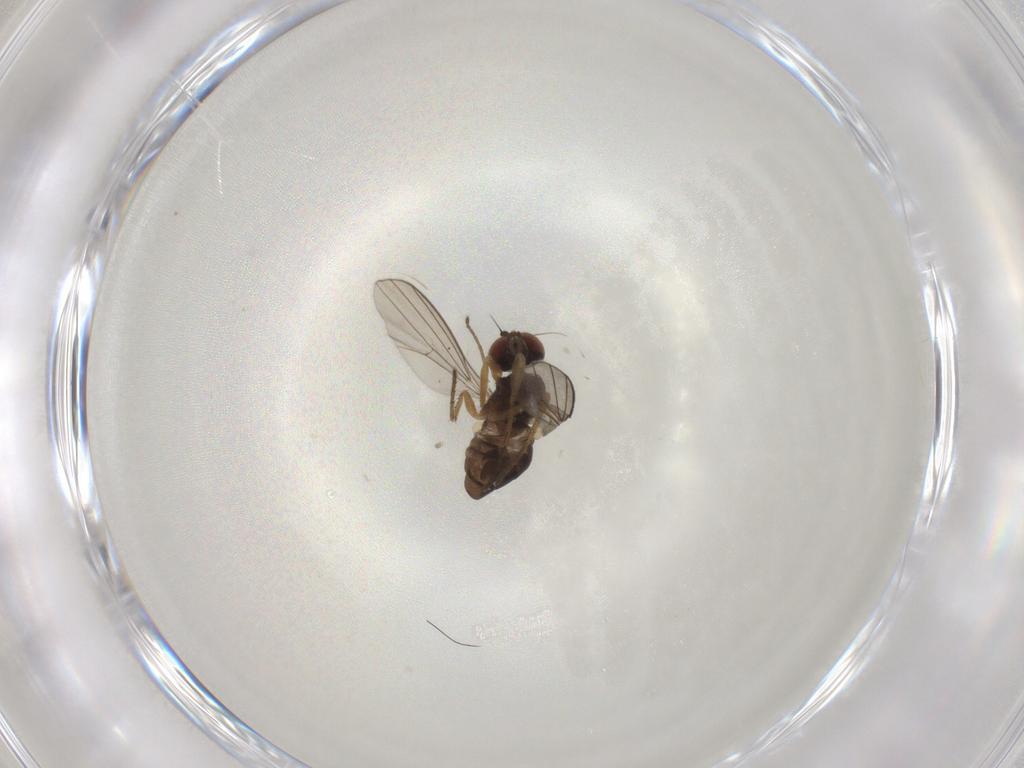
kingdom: Animalia
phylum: Arthropoda
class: Insecta
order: Diptera
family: Dolichopodidae
